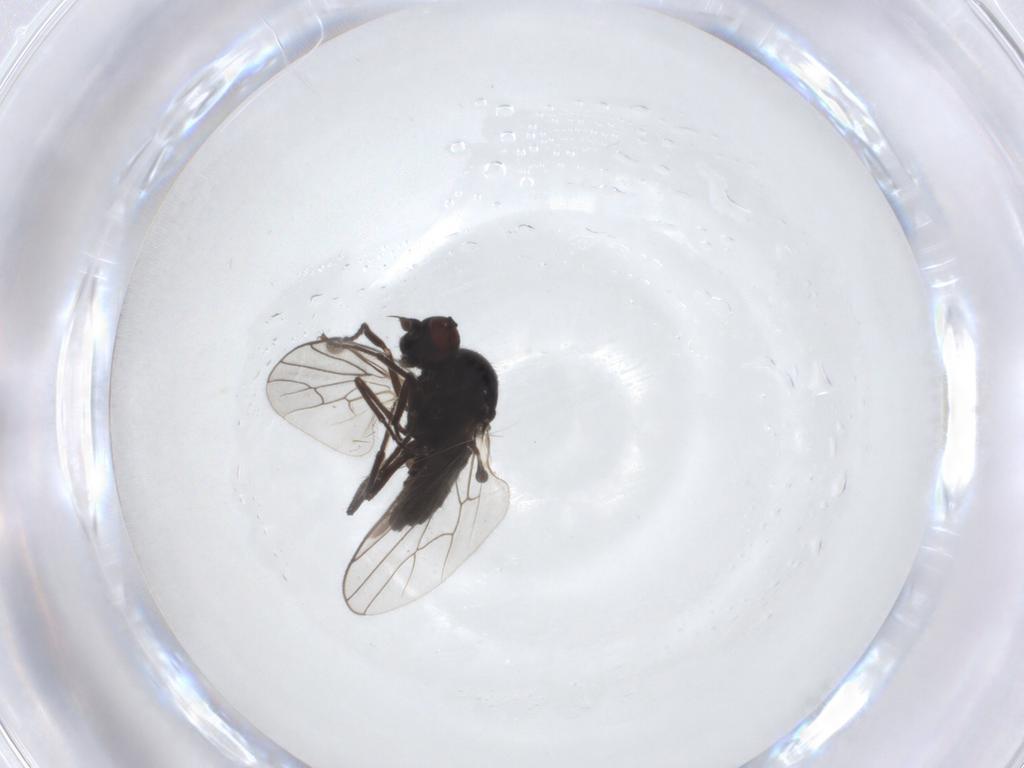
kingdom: Animalia
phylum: Arthropoda
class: Insecta
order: Diptera
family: Hybotidae
